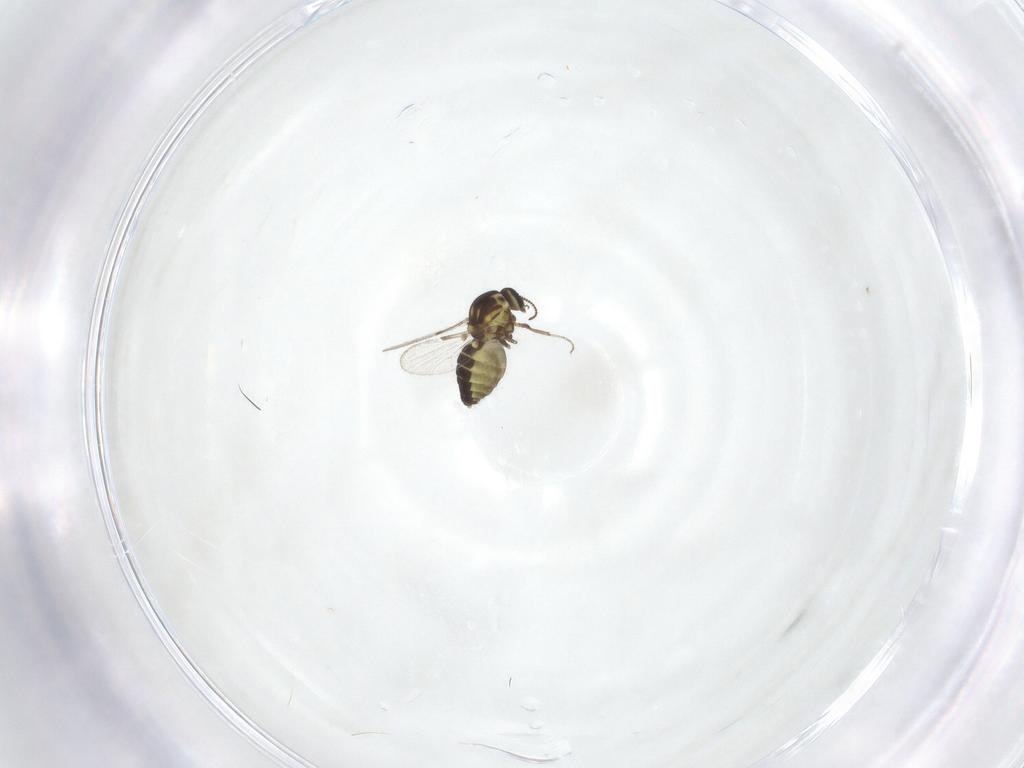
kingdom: Animalia
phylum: Arthropoda
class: Insecta
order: Diptera
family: Ceratopogonidae
